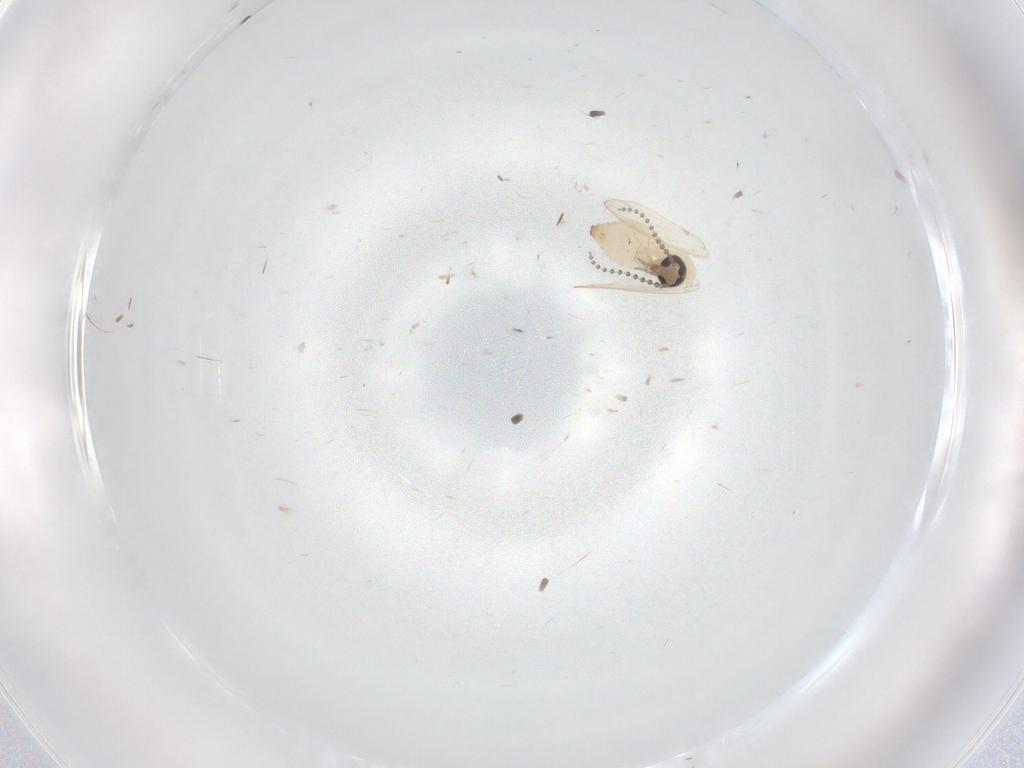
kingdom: Animalia
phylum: Arthropoda
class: Insecta
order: Diptera
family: Psychodidae
